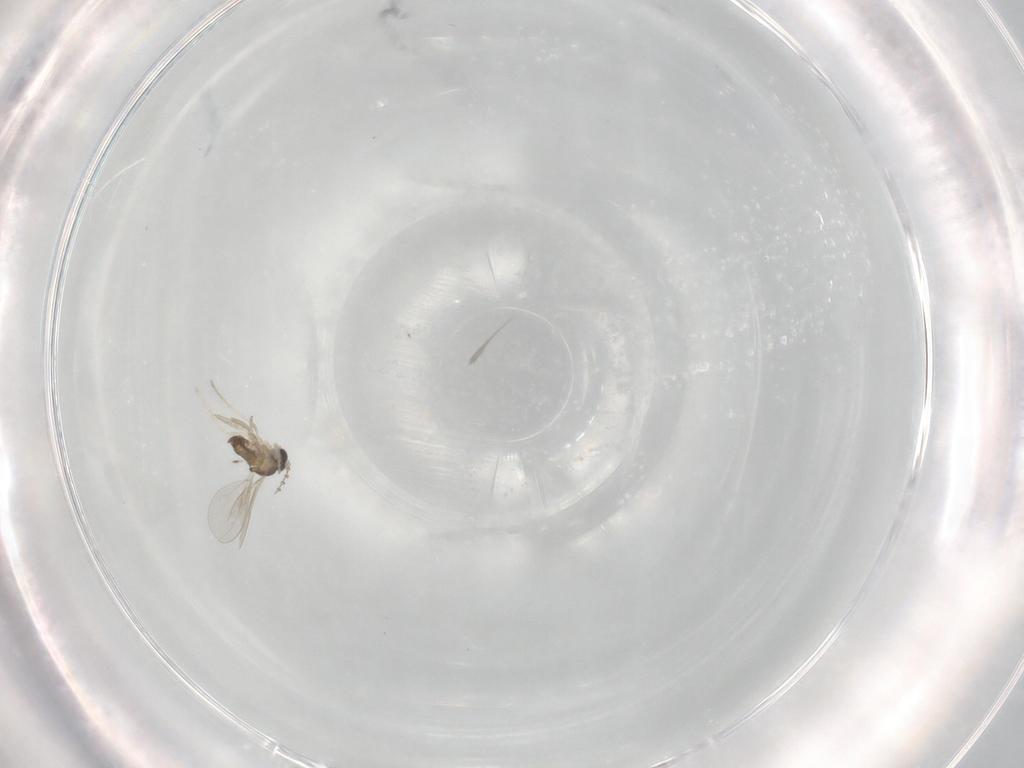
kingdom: Animalia
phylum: Arthropoda
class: Insecta
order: Diptera
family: Cecidomyiidae
